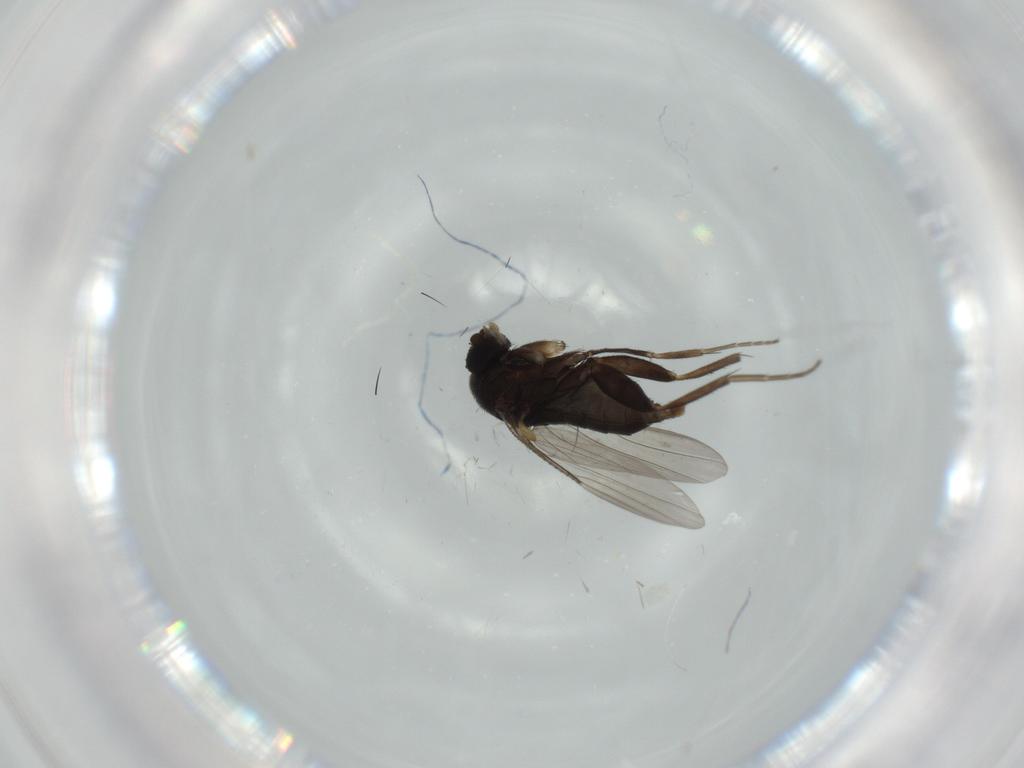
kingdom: Animalia
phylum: Arthropoda
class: Insecta
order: Diptera
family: Phoridae
